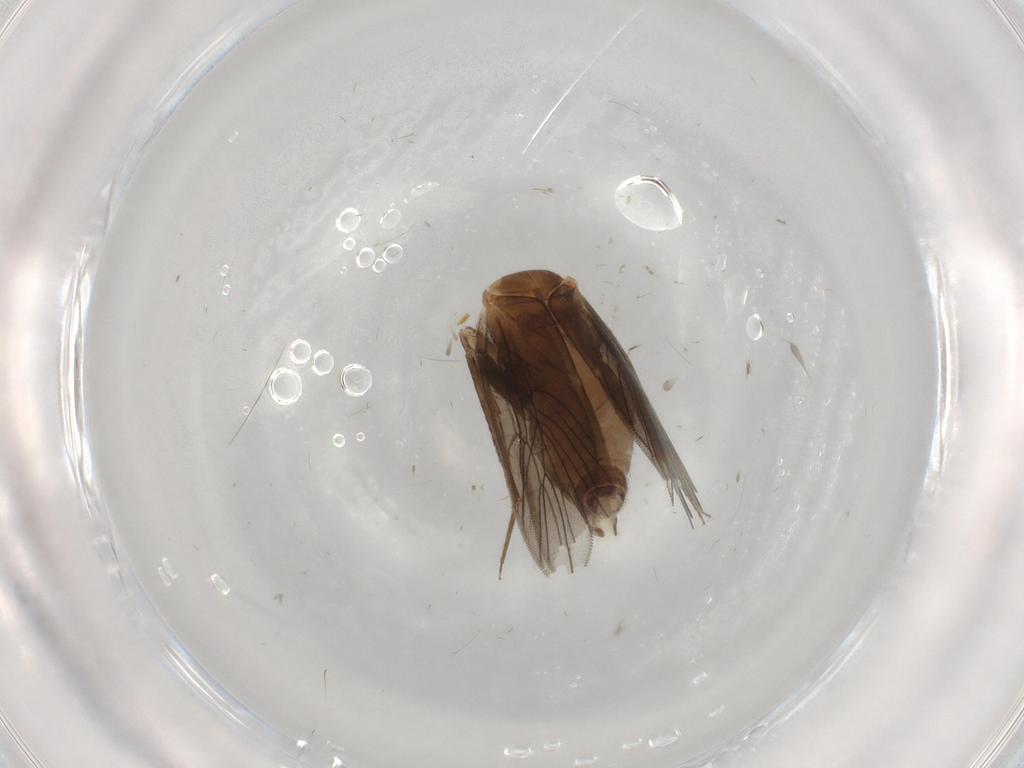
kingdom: Animalia
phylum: Arthropoda
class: Insecta
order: Psocodea
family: Lepidopsocidae
